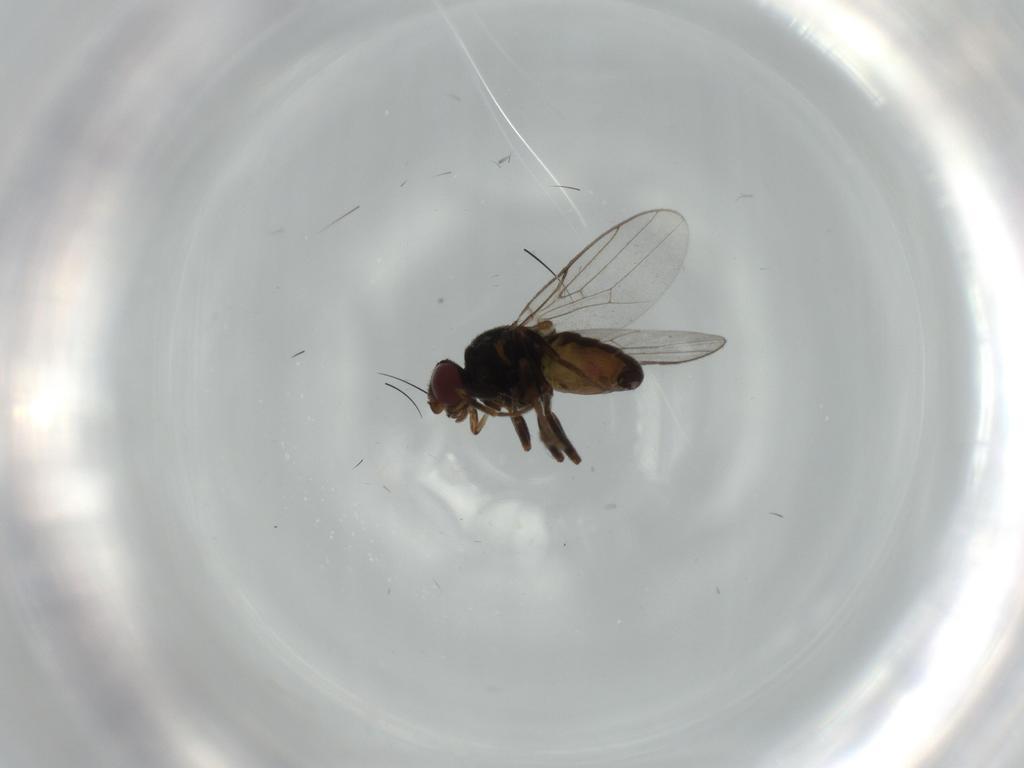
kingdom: Animalia
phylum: Arthropoda
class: Insecta
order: Diptera
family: Chloropidae
